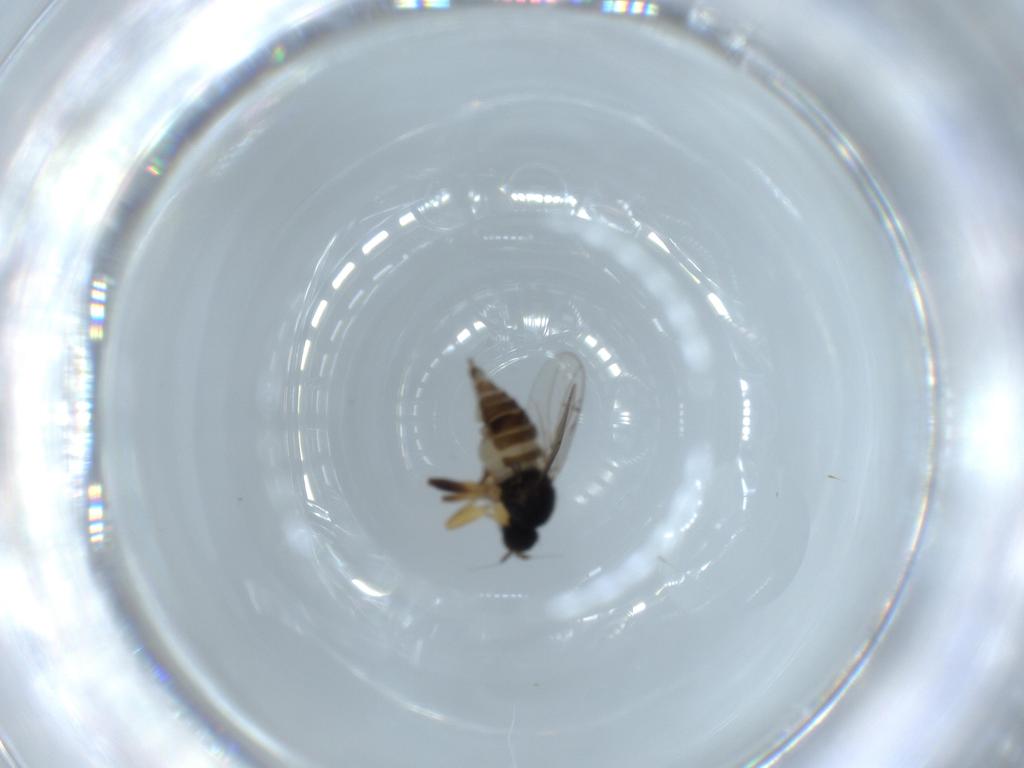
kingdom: Animalia
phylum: Arthropoda
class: Insecta
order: Diptera
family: Hybotidae
